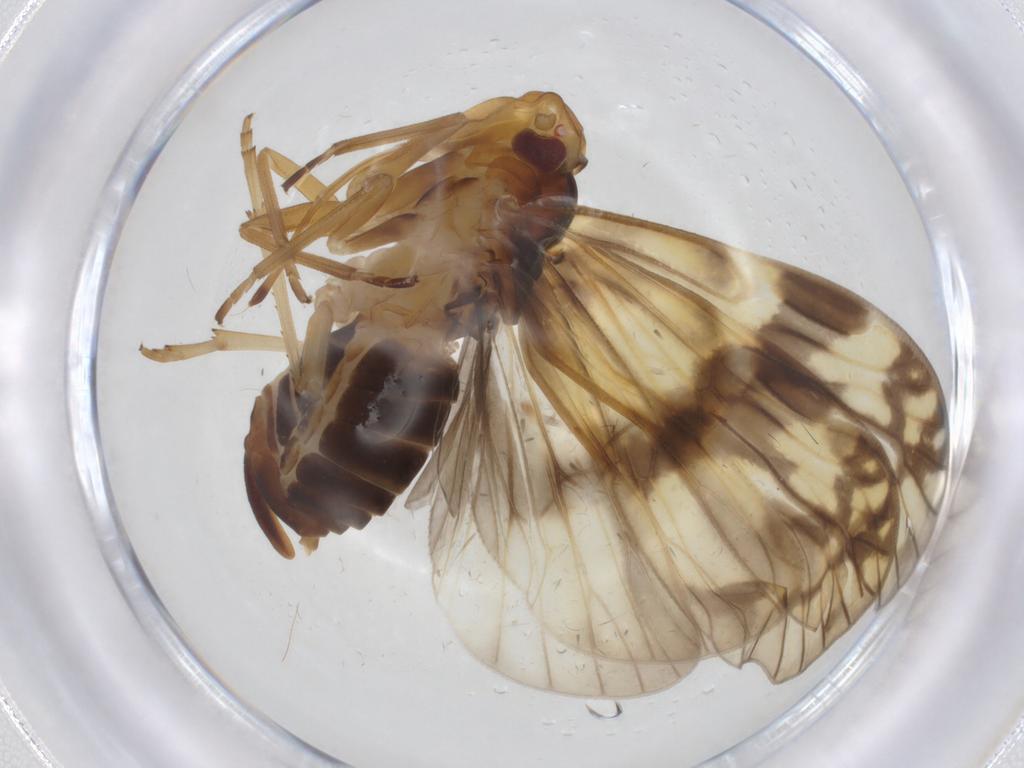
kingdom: Animalia
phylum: Arthropoda
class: Insecta
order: Hemiptera
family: Cixiidae
